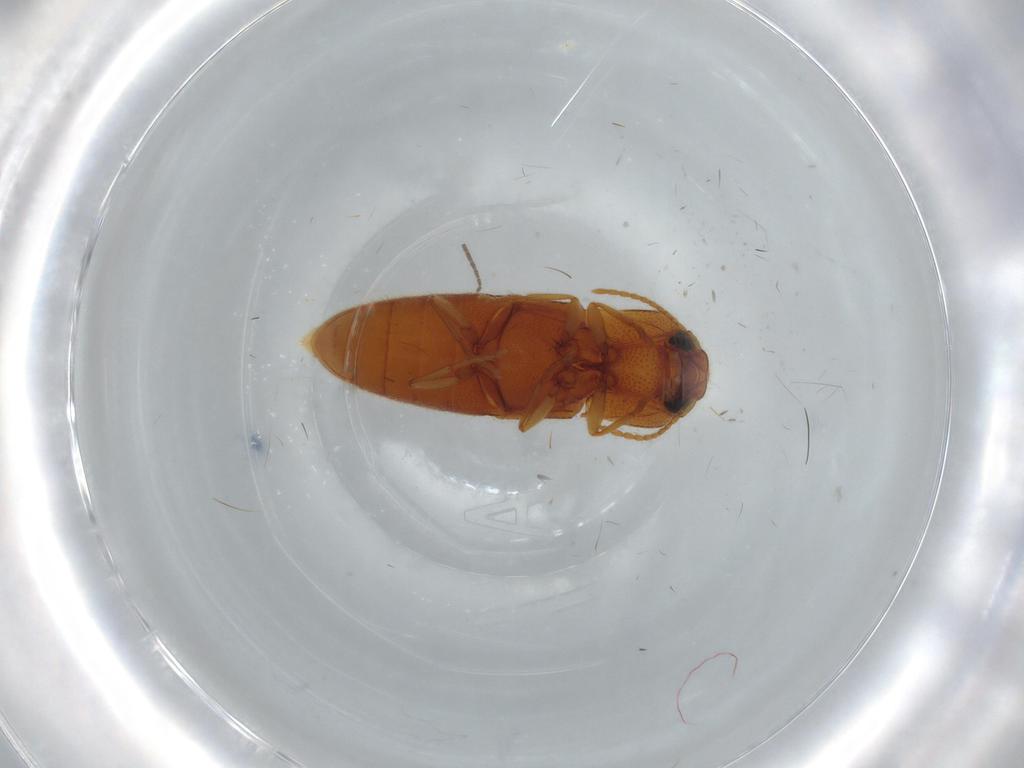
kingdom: Animalia
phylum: Arthropoda
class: Insecta
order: Coleoptera
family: Elateridae
